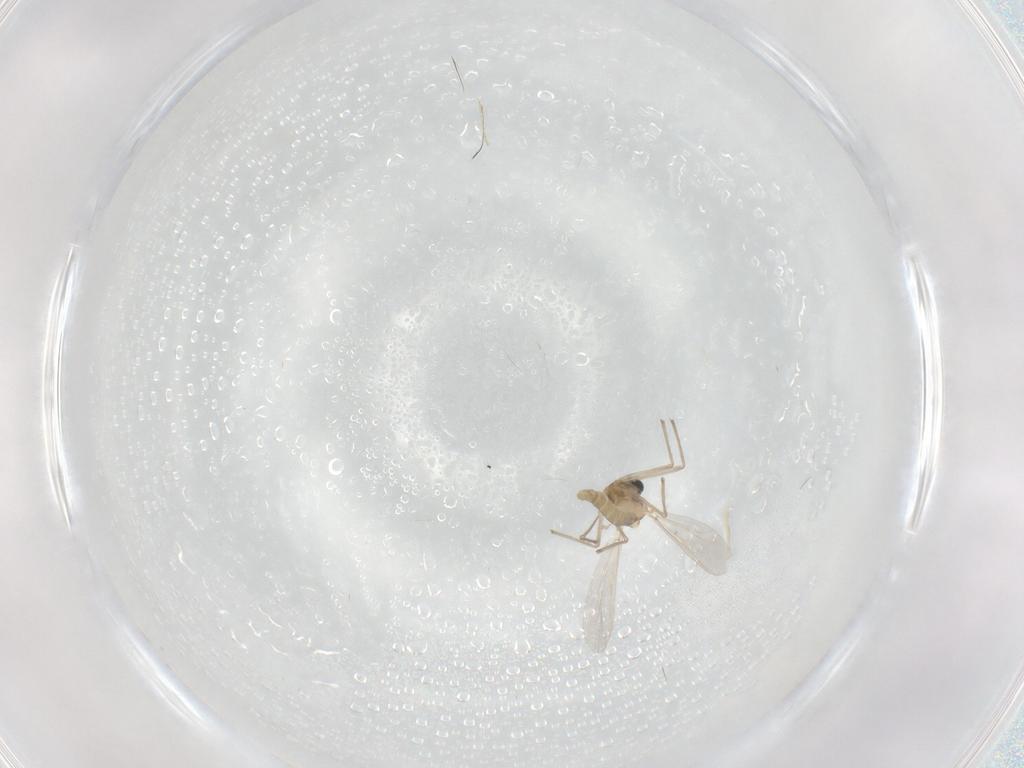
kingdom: Animalia
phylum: Arthropoda
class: Insecta
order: Diptera
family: Cecidomyiidae
